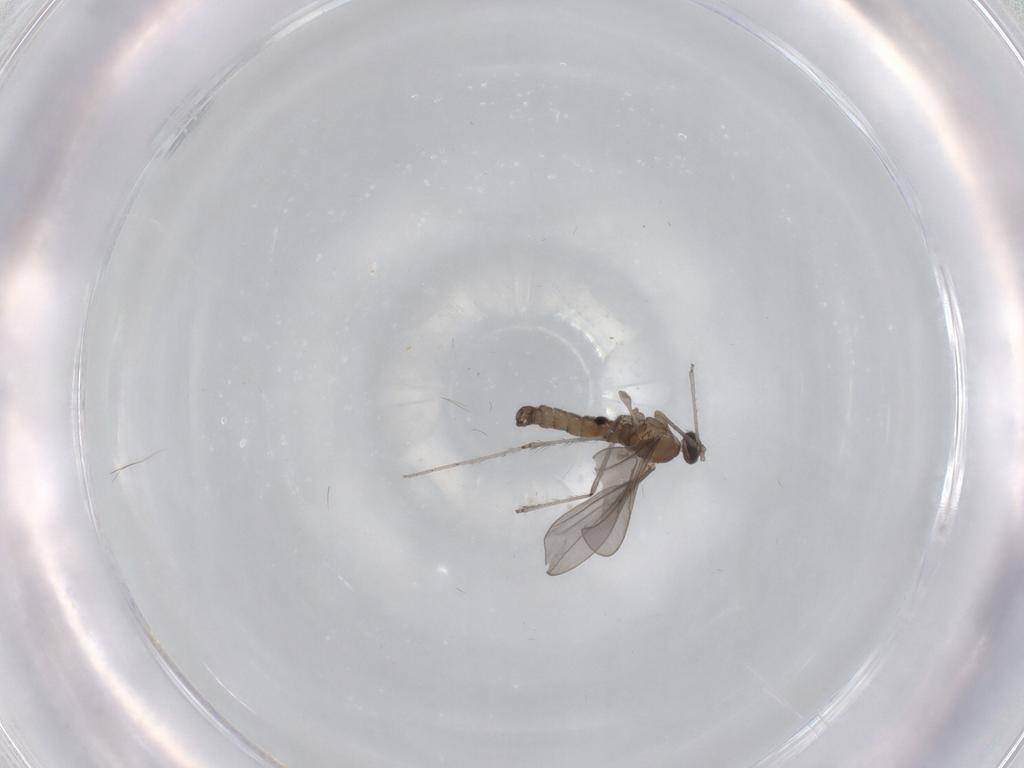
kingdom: Animalia
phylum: Arthropoda
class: Insecta
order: Diptera
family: Cecidomyiidae
